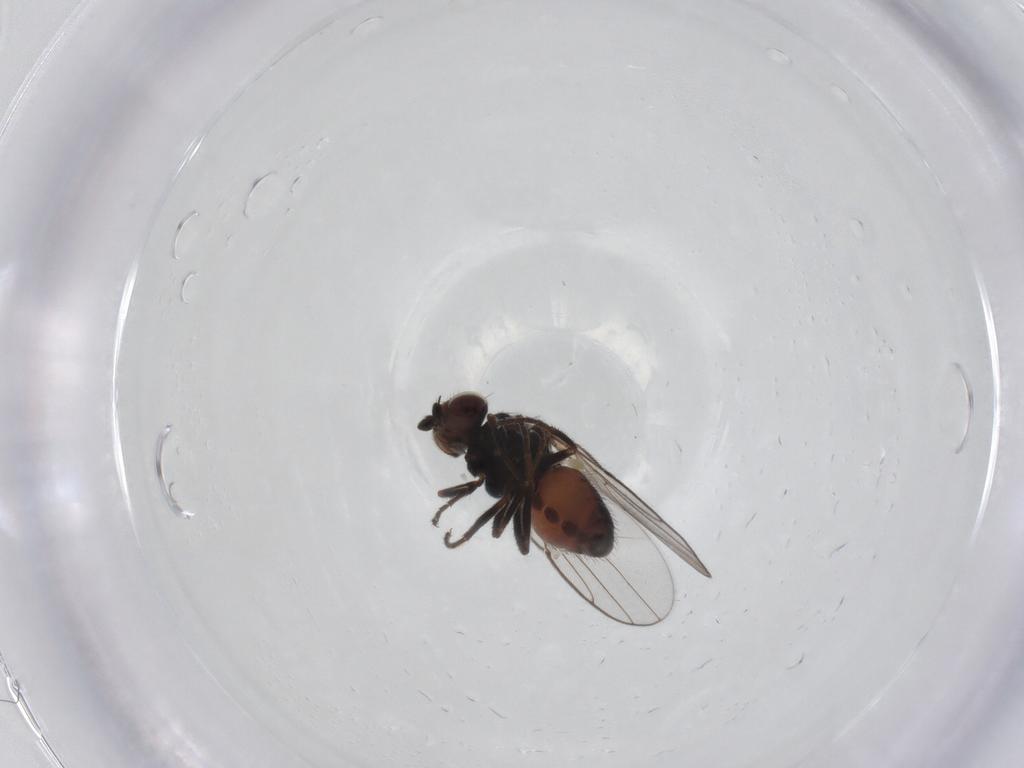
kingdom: Animalia
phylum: Arthropoda
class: Insecta
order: Diptera
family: Chloropidae
